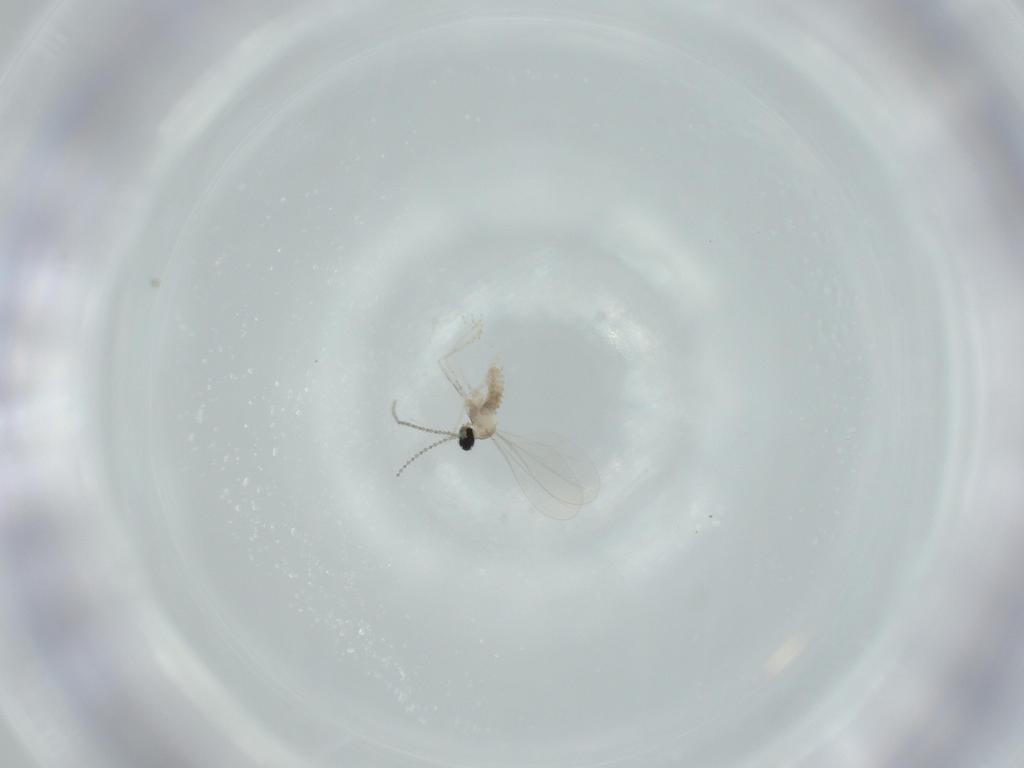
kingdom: Animalia
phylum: Arthropoda
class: Insecta
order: Diptera
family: Cecidomyiidae
